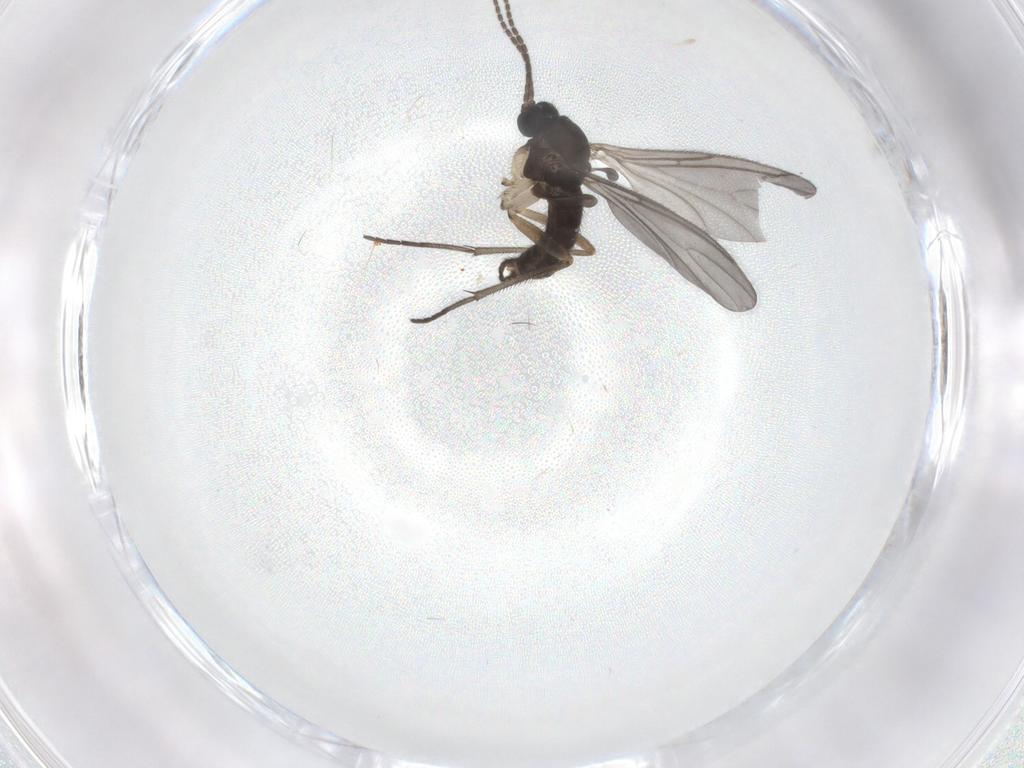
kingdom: Animalia
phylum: Arthropoda
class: Insecta
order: Diptera
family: Sciaridae
